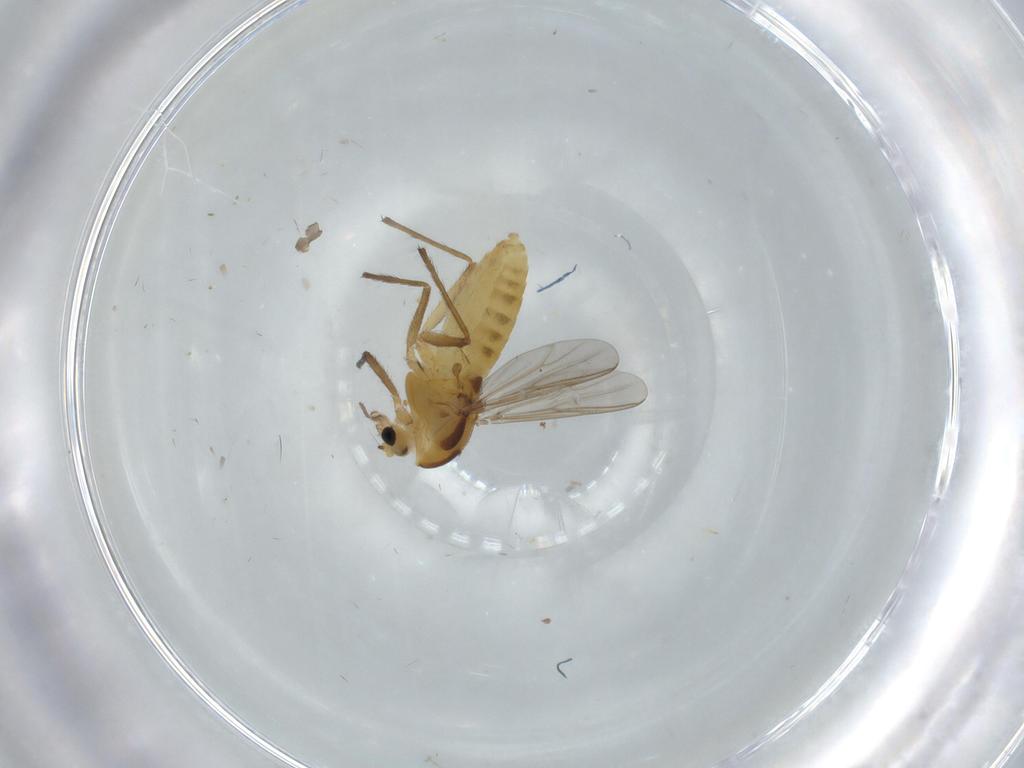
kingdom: Animalia
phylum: Arthropoda
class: Insecta
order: Diptera
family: Chironomidae
